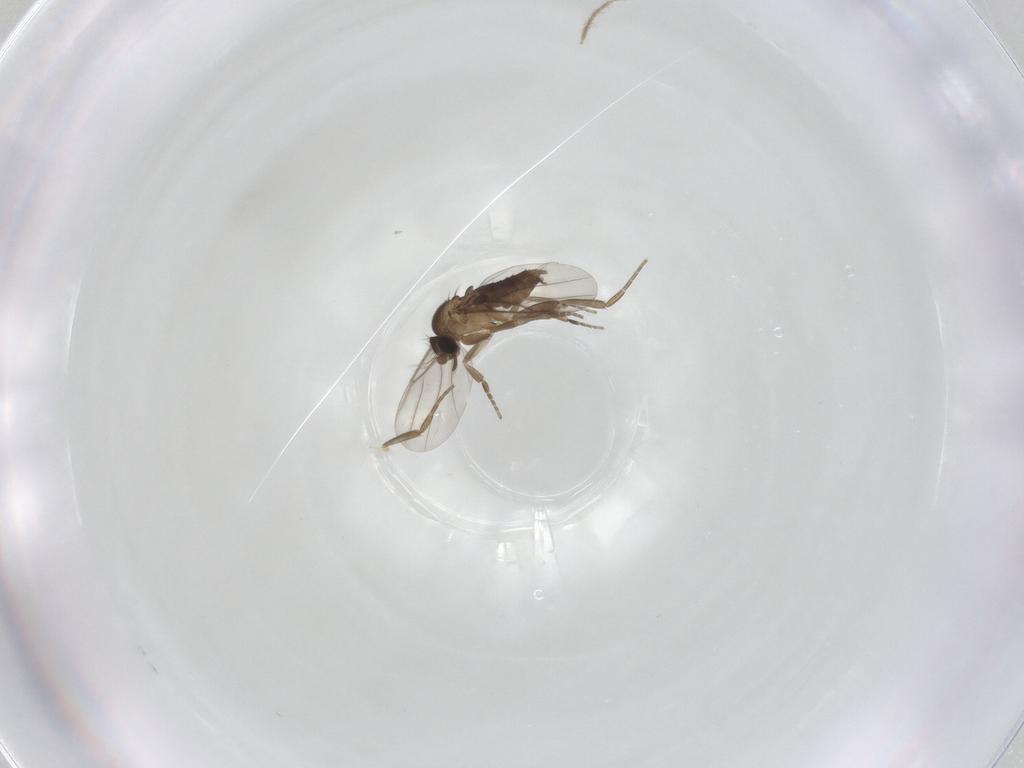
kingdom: Animalia
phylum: Arthropoda
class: Insecta
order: Diptera
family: Phoridae
